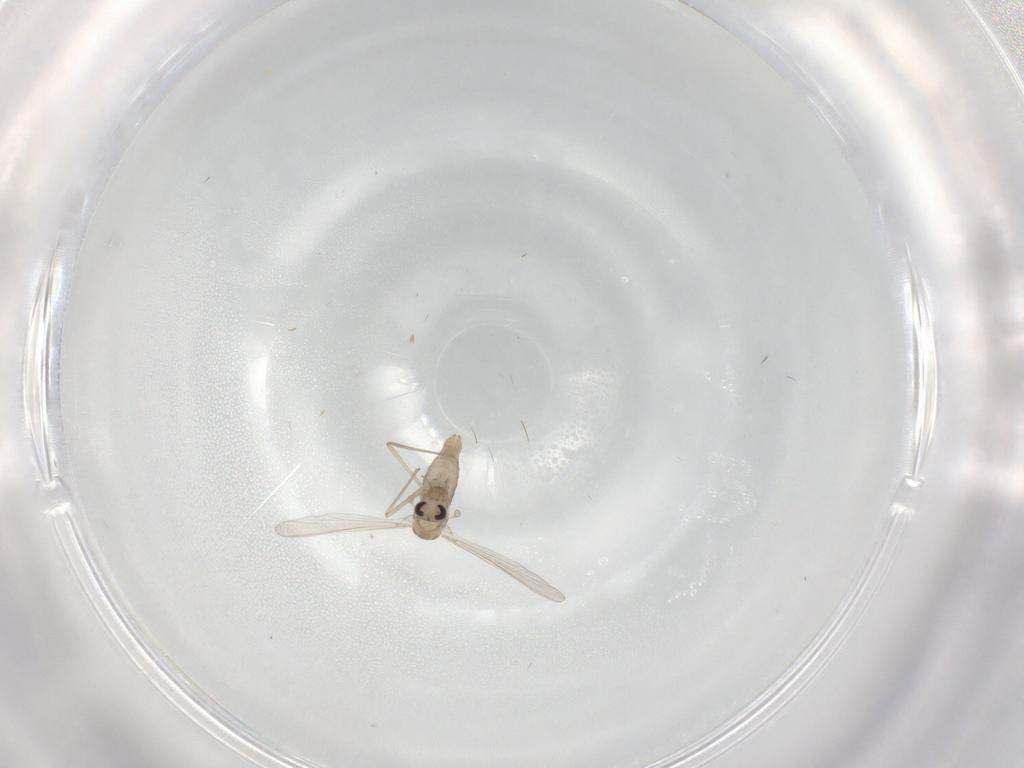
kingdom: Animalia
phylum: Arthropoda
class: Insecta
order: Diptera
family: Chironomidae
